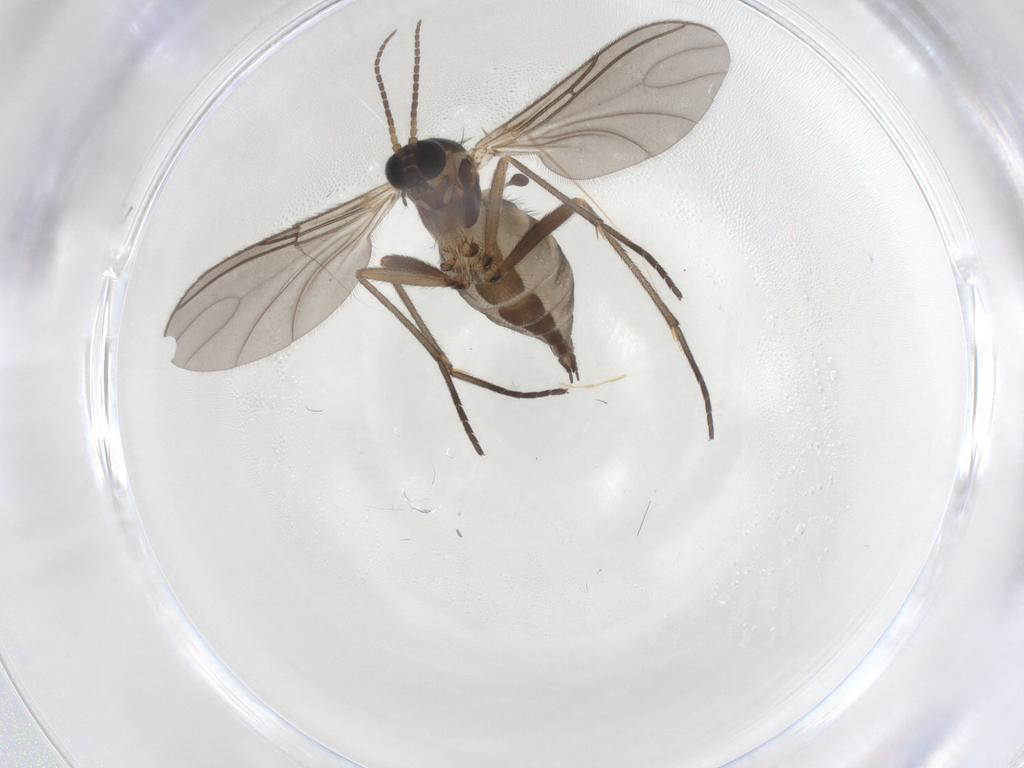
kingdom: Animalia
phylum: Arthropoda
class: Insecta
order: Diptera
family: Sciaridae
